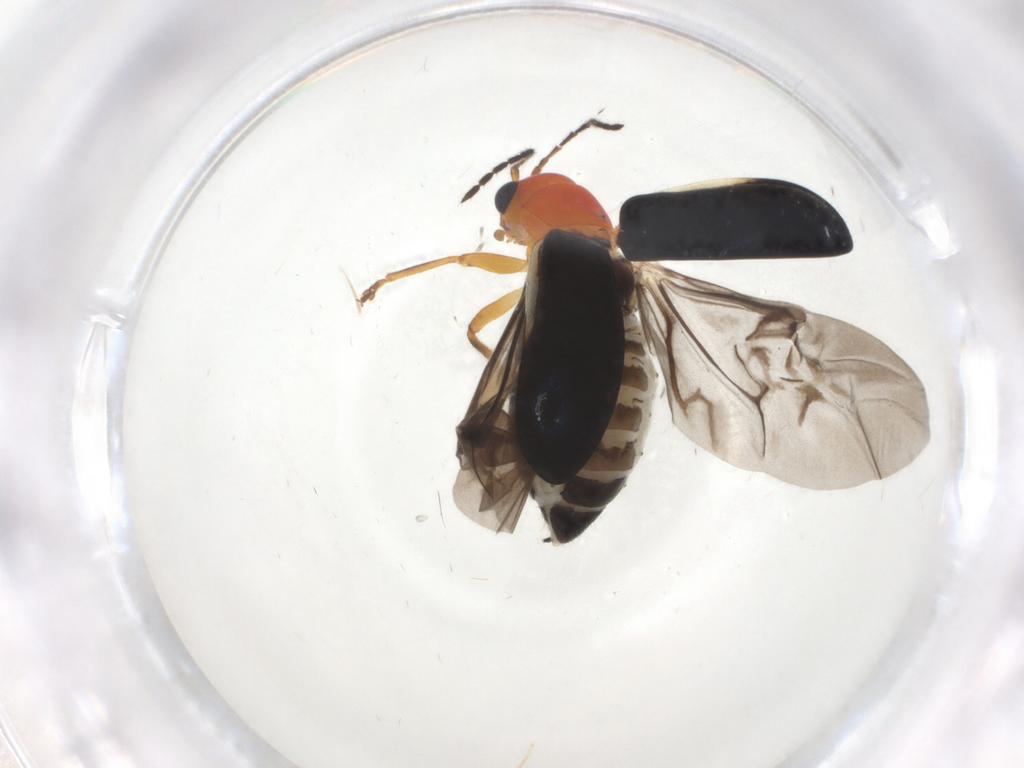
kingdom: Animalia
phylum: Arthropoda
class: Insecta
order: Coleoptera
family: Chrysomelidae
